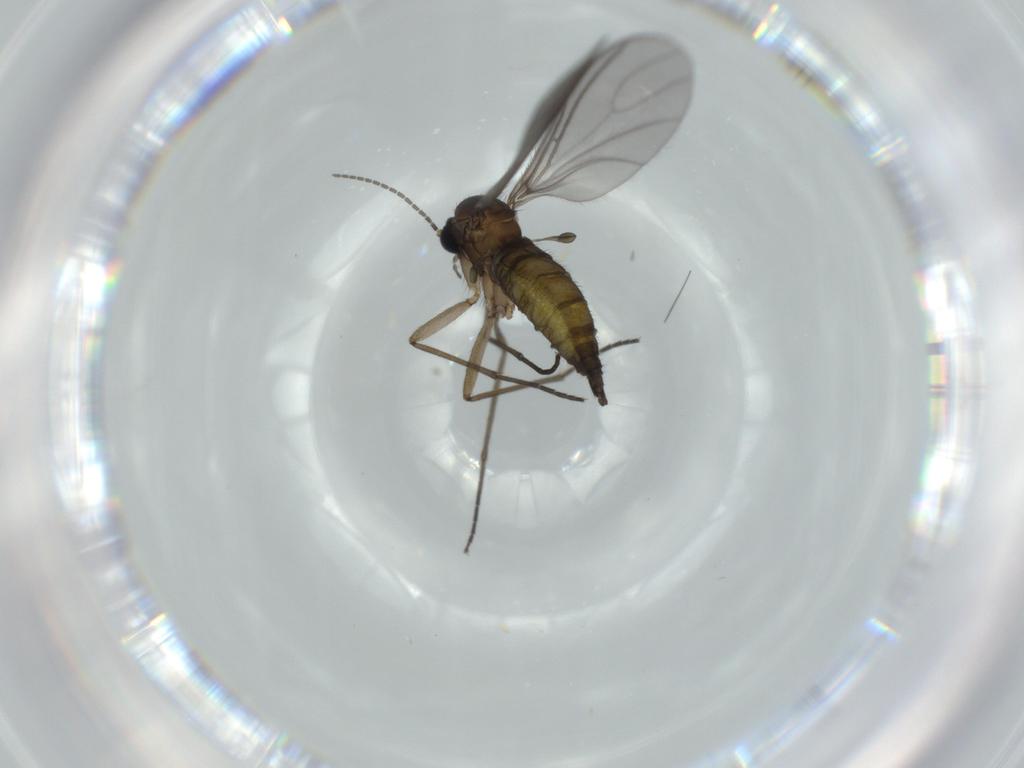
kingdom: Animalia
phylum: Arthropoda
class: Insecta
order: Diptera
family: Sciaridae
